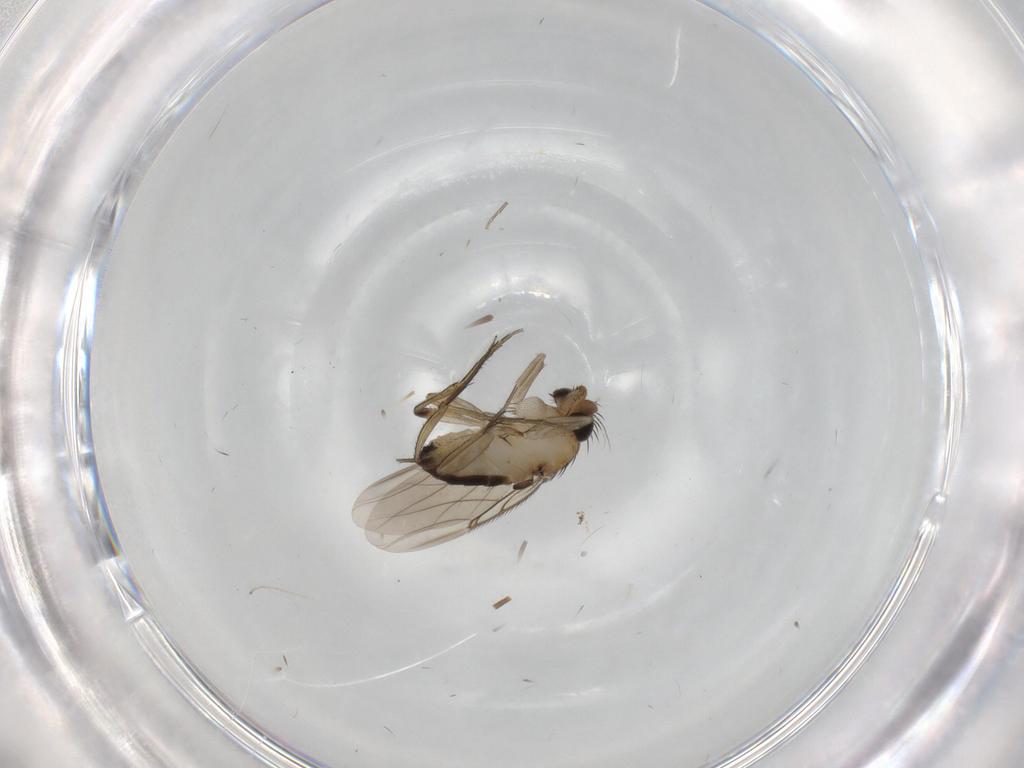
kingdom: Animalia
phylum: Arthropoda
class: Insecta
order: Diptera
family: Phoridae
